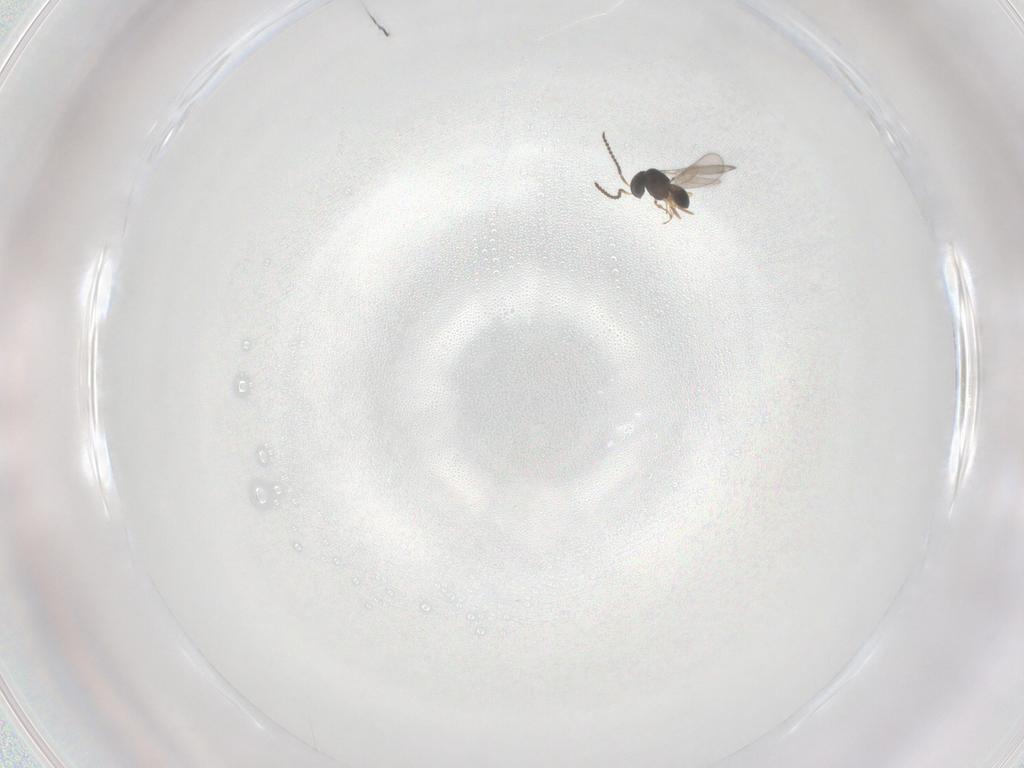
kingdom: Animalia
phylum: Arthropoda
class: Insecta
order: Hymenoptera
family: Scelionidae
